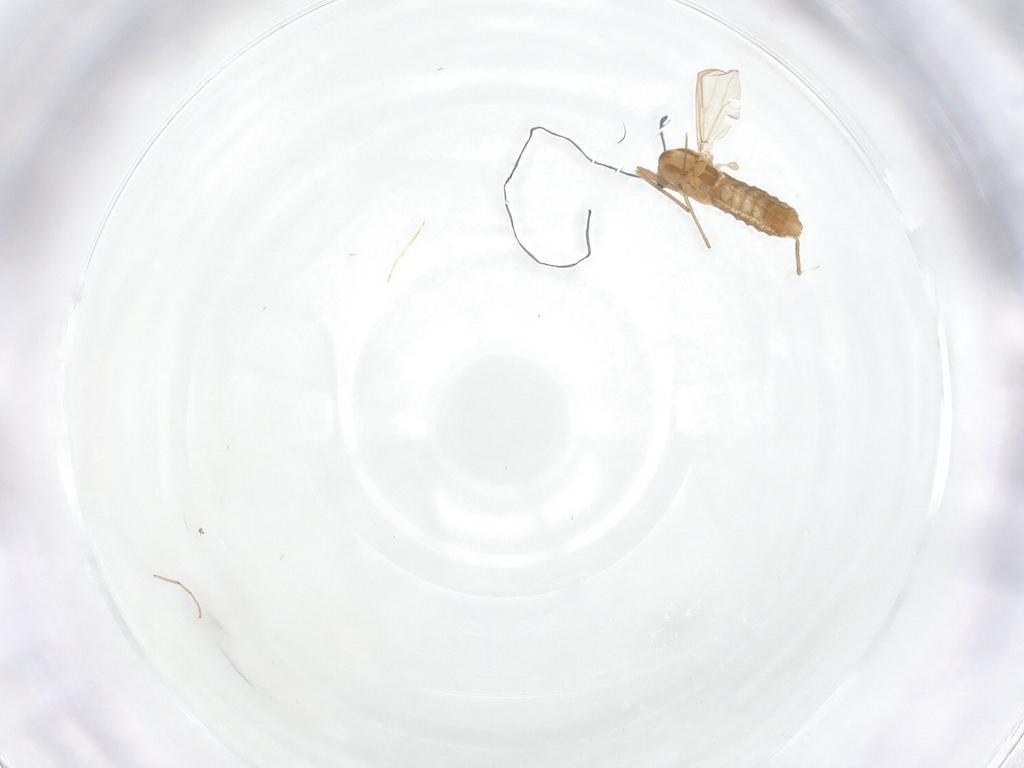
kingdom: Animalia
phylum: Arthropoda
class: Insecta
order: Diptera
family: Chironomidae
